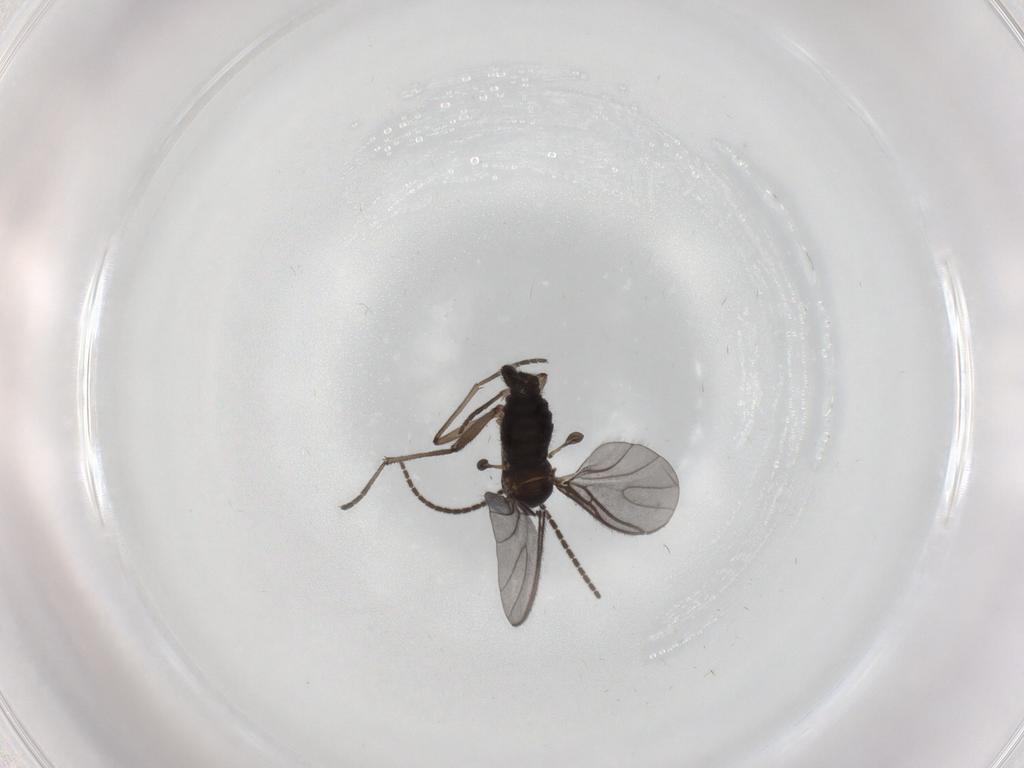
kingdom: Animalia
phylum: Arthropoda
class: Insecta
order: Diptera
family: Sciaridae
